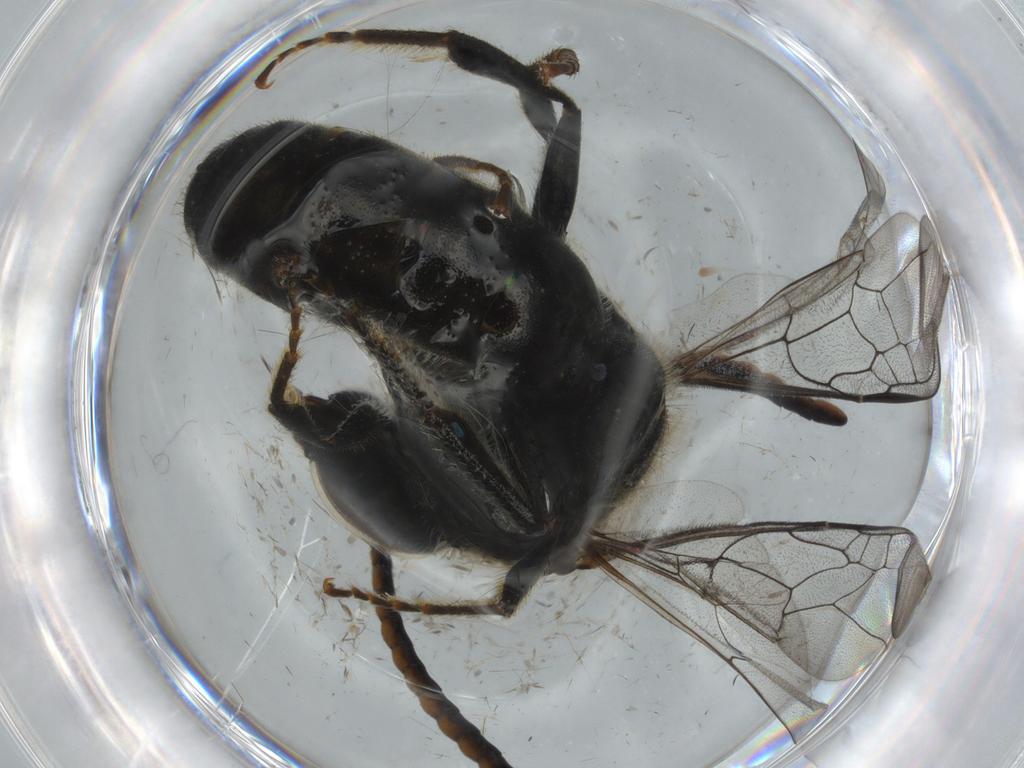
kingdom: Animalia
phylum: Arthropoda
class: Insecta
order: Hymenoptera
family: Halictidae
